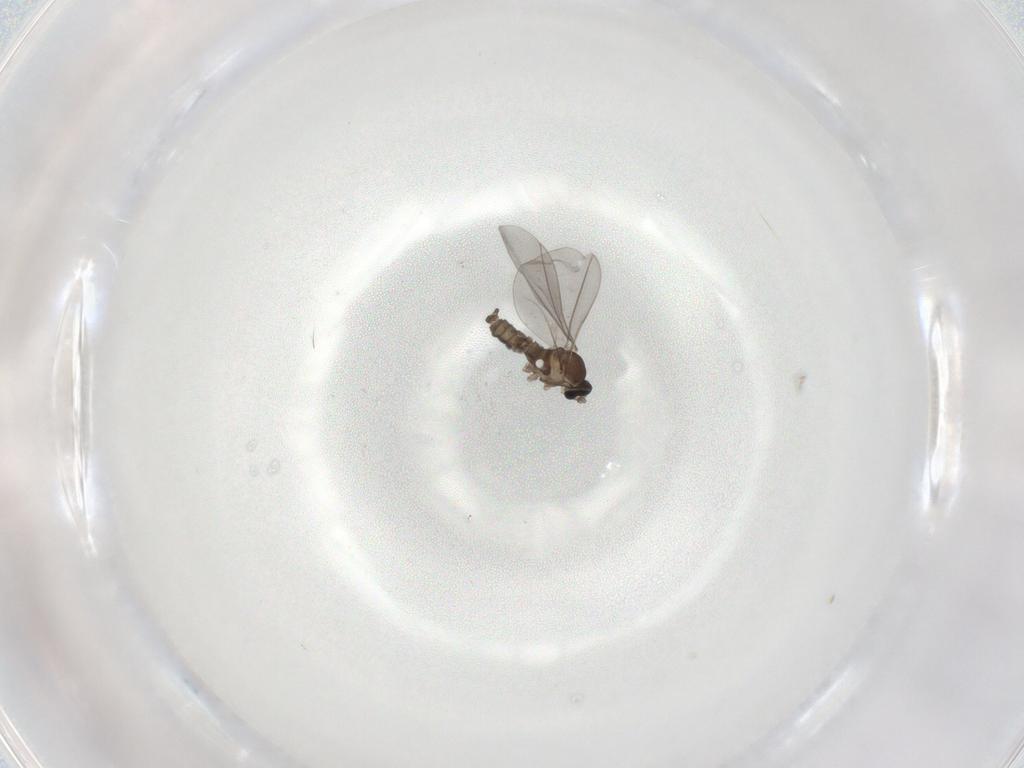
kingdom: Animalia
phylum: Arthropoda
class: Insecta
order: Diptera
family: Cecidomyiidae
